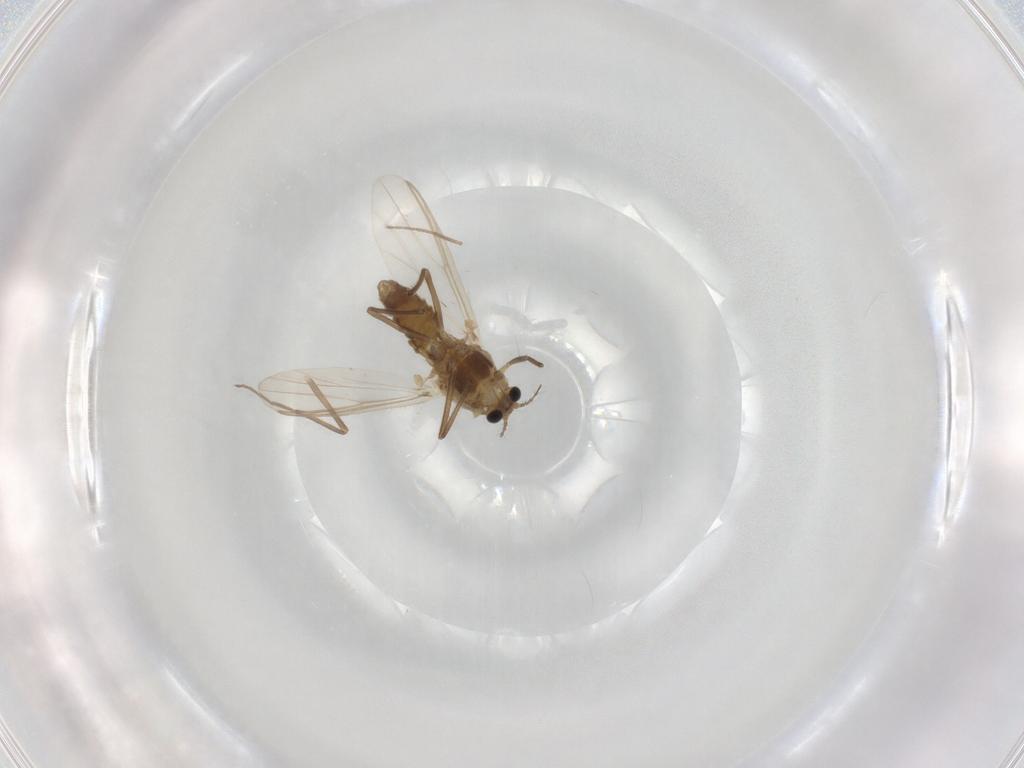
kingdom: Animalia
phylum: Arthropoda
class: Insecta
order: Diptera
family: Phoridae
